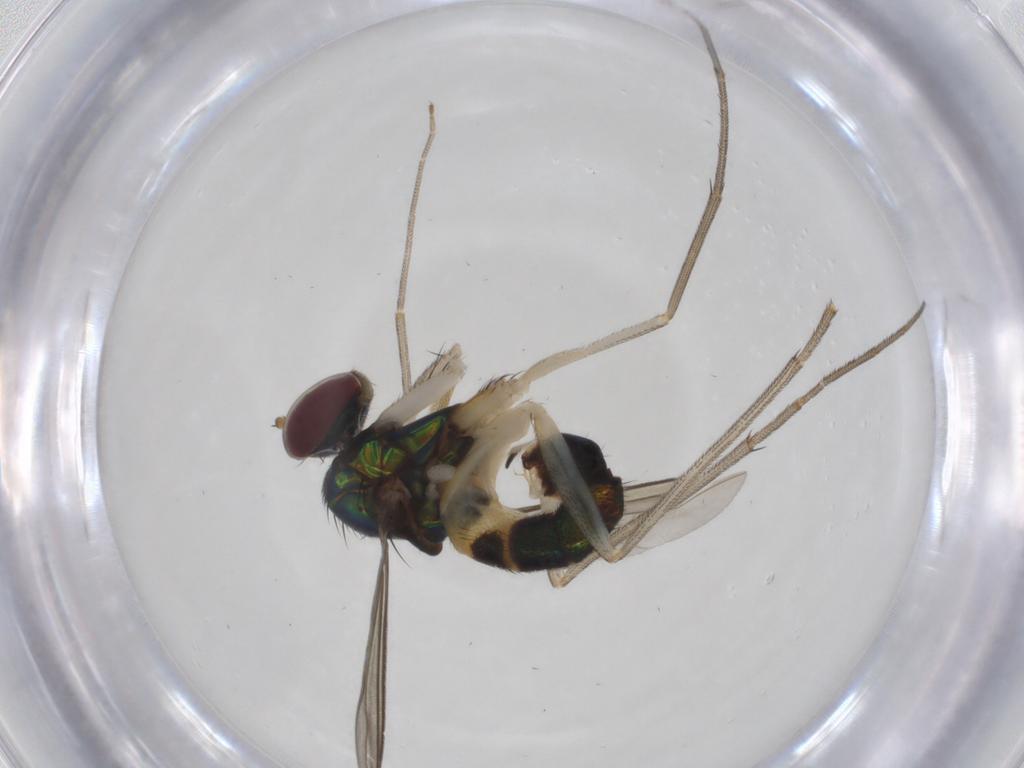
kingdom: Animalia
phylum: Arthropoda
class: Insecta
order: Diptera
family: Dolichopodidae
